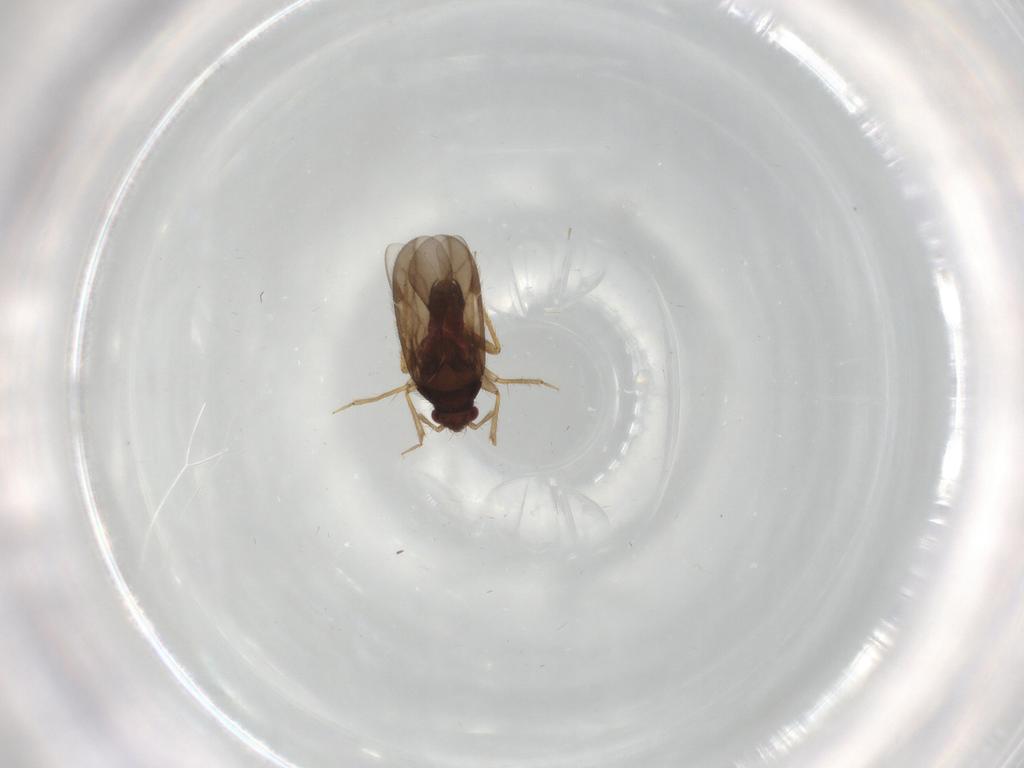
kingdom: Animalia
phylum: Arthropoda
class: Insecta
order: Hemiptera
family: Ceratocombidae
